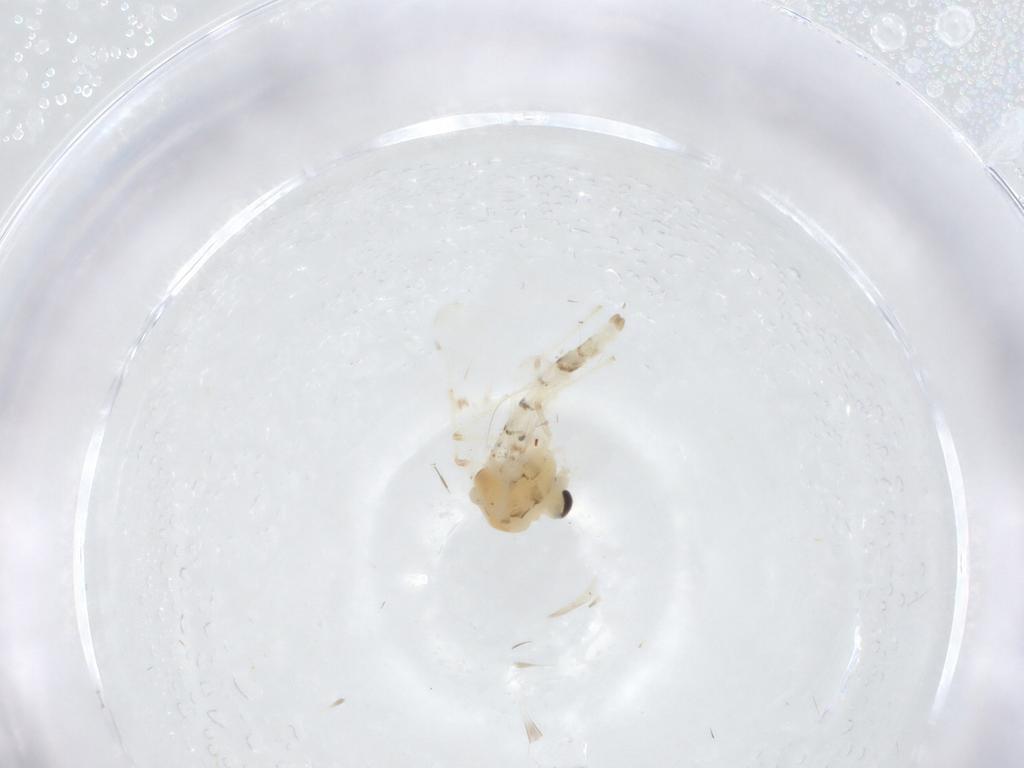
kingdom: Animalia
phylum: Arthropoda
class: Insecta
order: Diptera
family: Chironomidae
